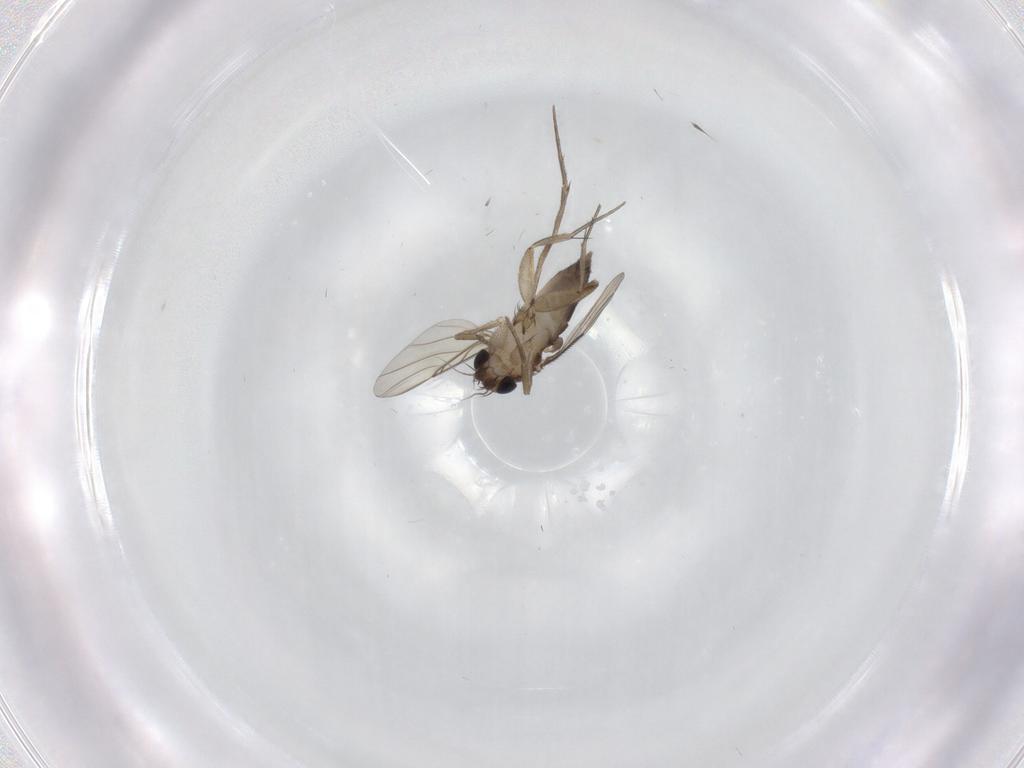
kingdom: Animalia
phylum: Arthropoda
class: Insecta
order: Diptera
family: Phoridae
